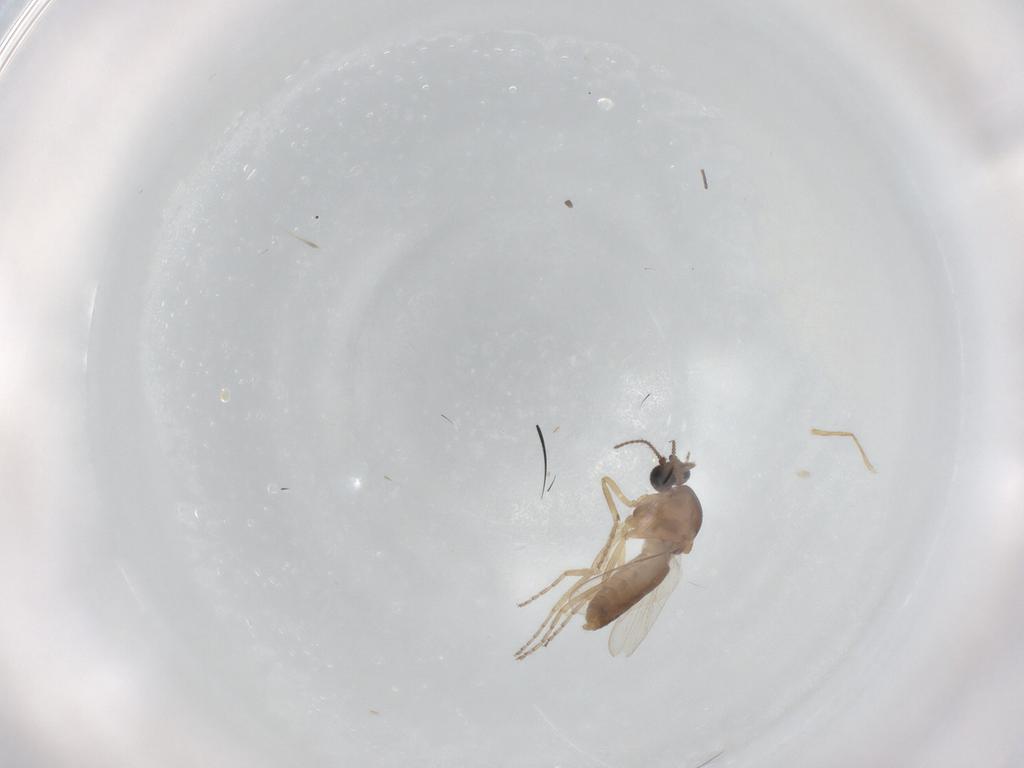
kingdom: Animalia
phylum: Arthropoda
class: Insecta
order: Diptera
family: Ceratopogonidae
